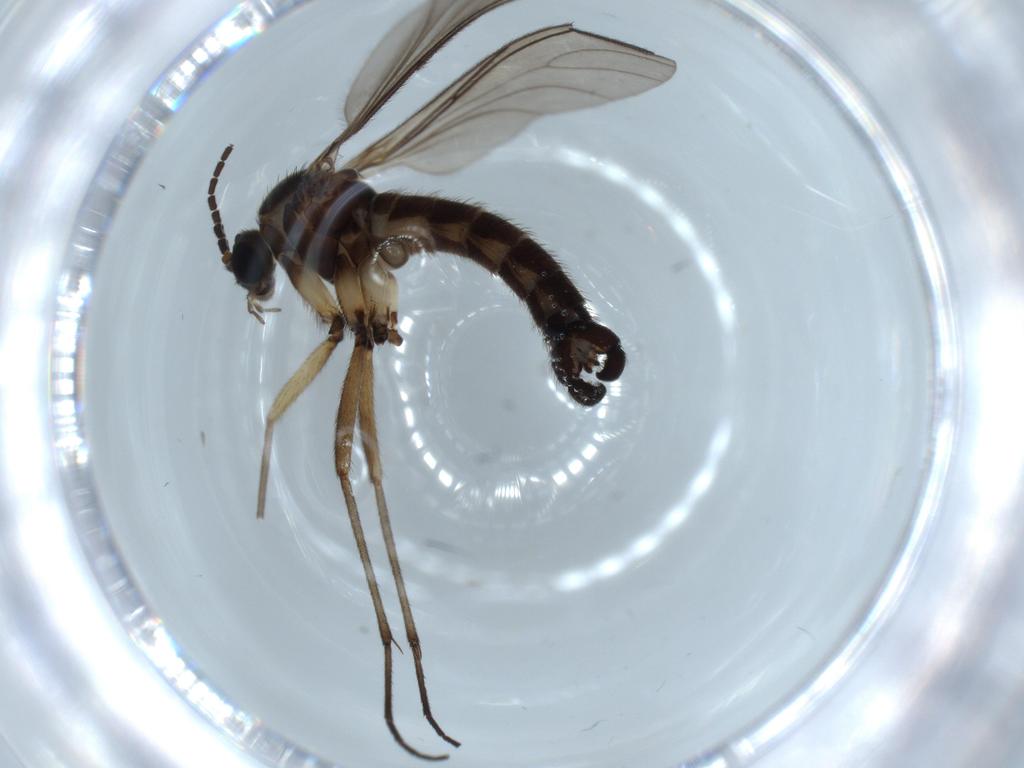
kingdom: Animalia
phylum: Arthropoda
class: Insecta
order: Diptera
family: Sciaridae
